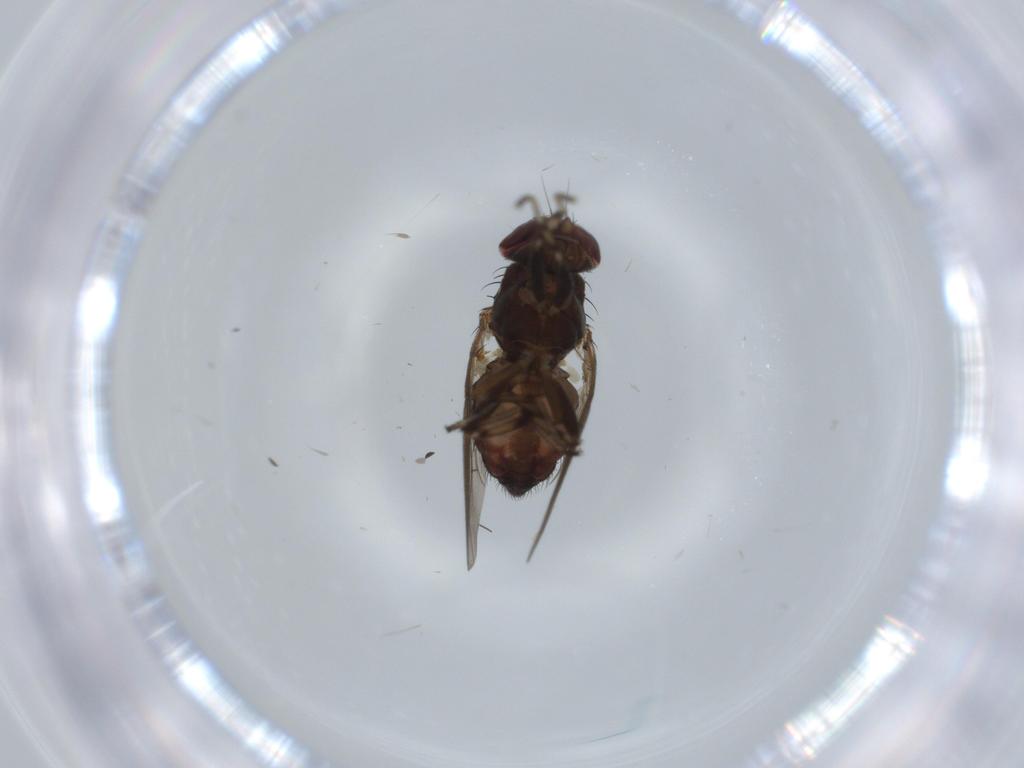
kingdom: Animalia
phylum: Arthropoda
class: Insecta
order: Diptera
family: Heleomyzidae
